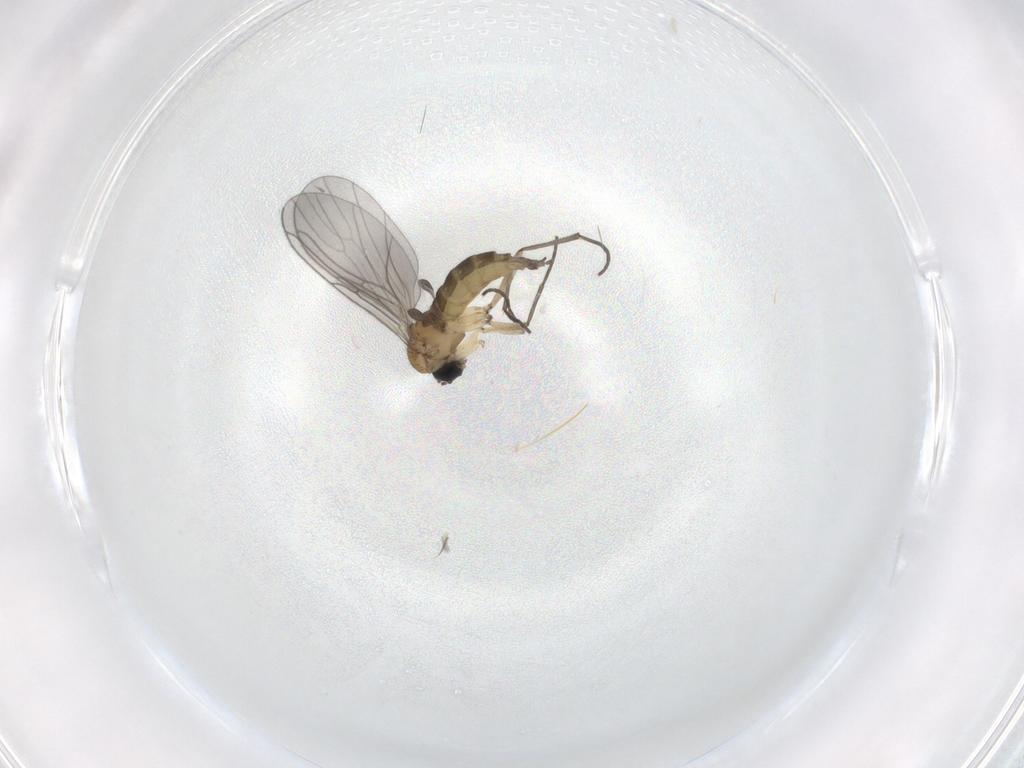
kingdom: Animalia
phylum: Arthropoda
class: Insecta
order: Diptera
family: Sciaridae
